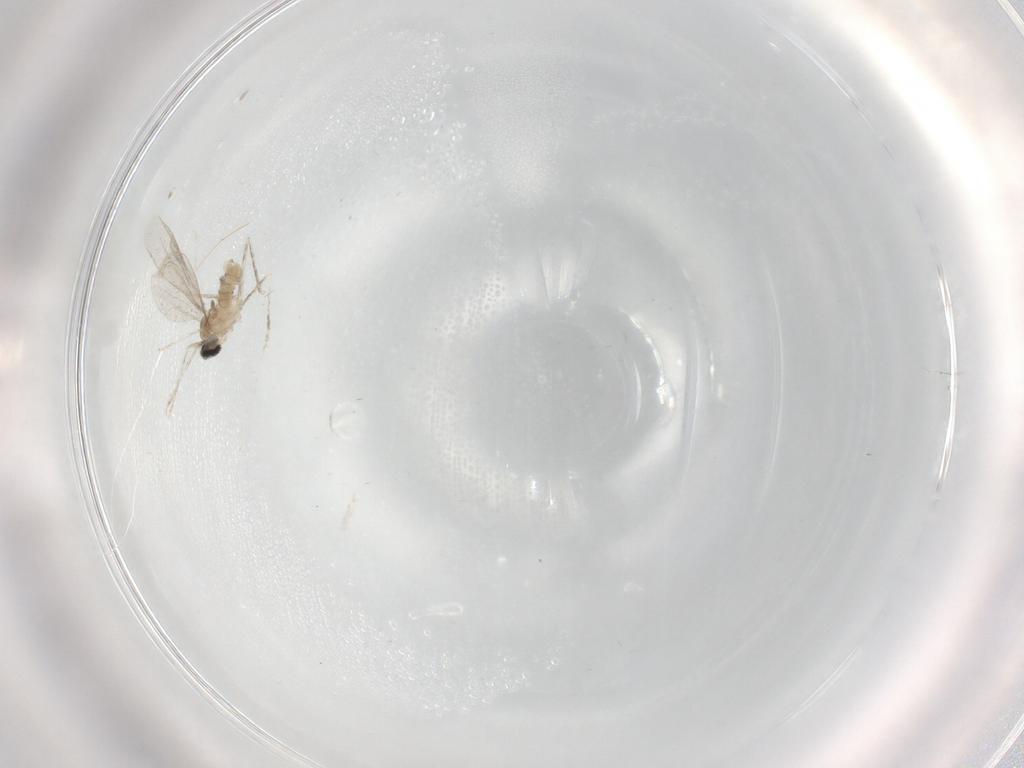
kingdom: Animalia
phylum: Arthropoda
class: Insecta
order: Diptera
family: Cecidomyiidae
